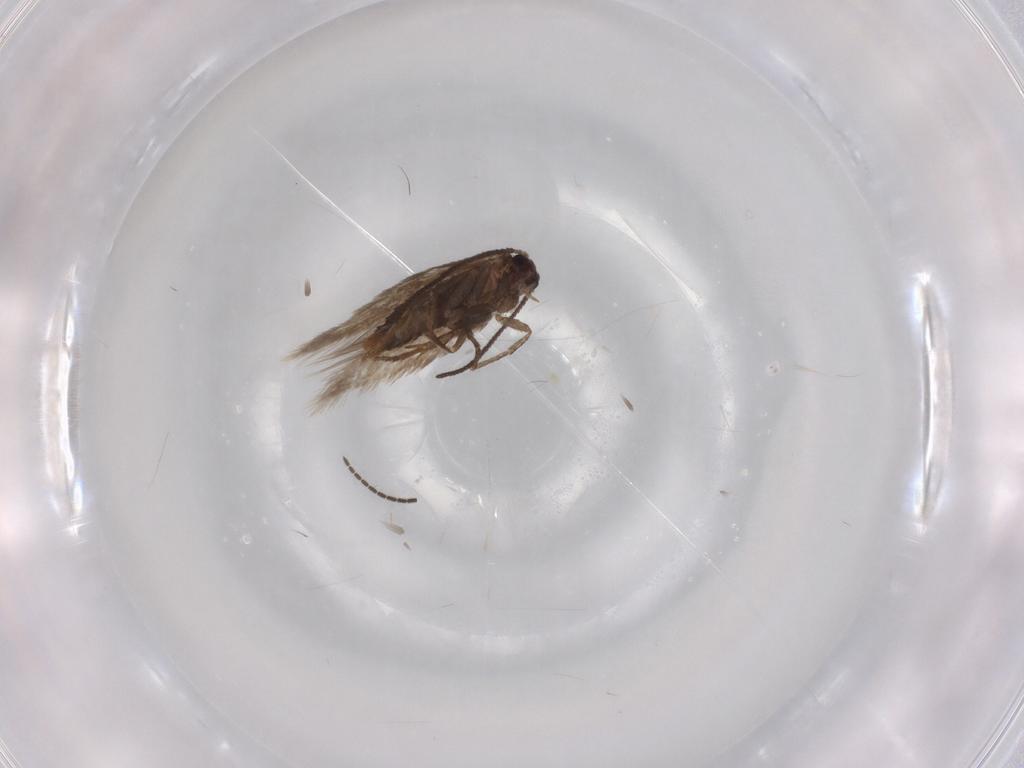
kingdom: Animalia
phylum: Arthropoda
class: Insecta
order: Lepidoptera
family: Nepticulidae
